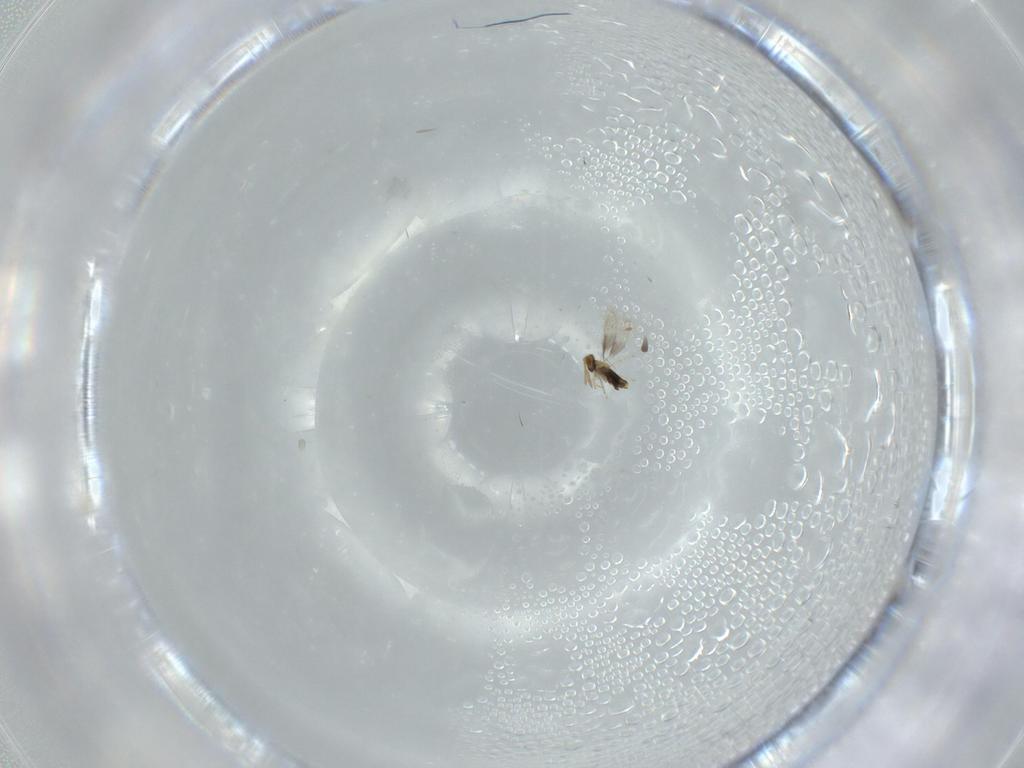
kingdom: Animalia
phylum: Arthropoda
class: Insecta
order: Hymenoptera
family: Aphelinidae
